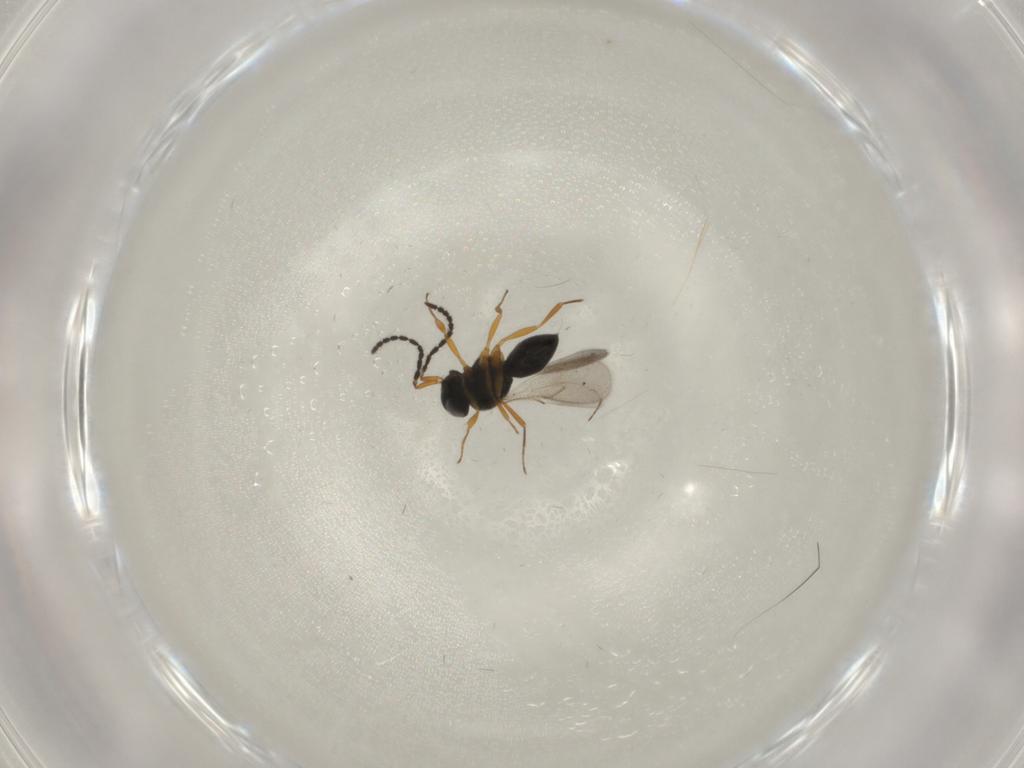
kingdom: Animalia
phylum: Arthropoda
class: Insecta
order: Hymenoptera
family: Scelionidae
